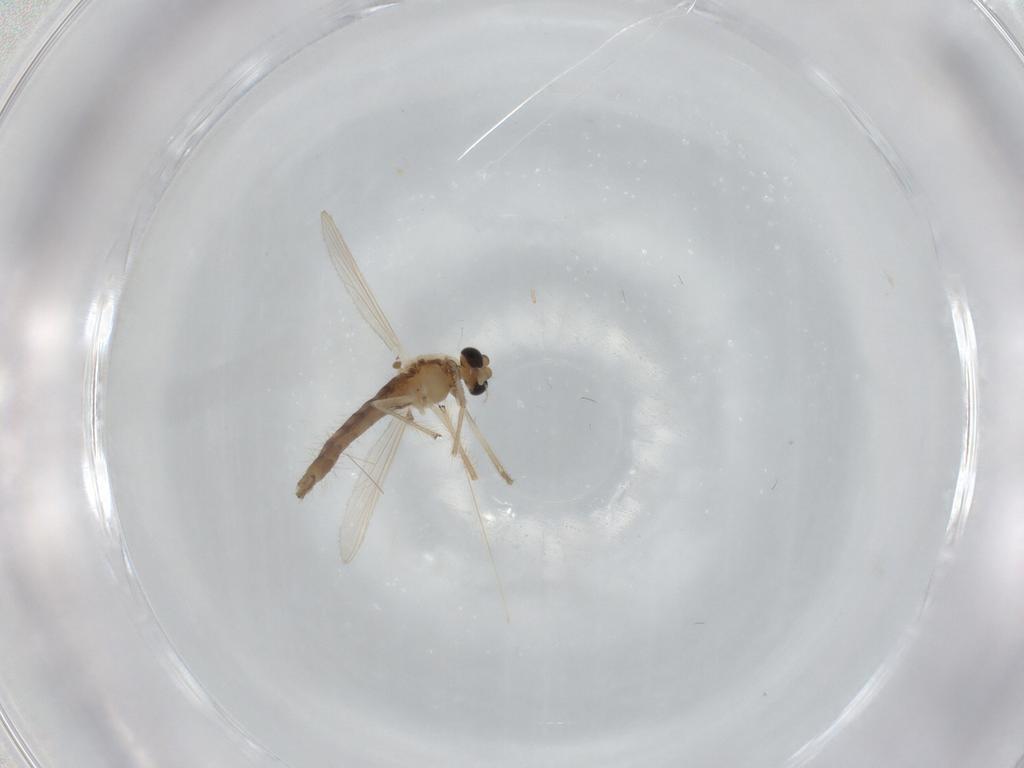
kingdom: Animalia
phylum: Arthropoda
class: Insecta
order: Diptera
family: Chironomidae
